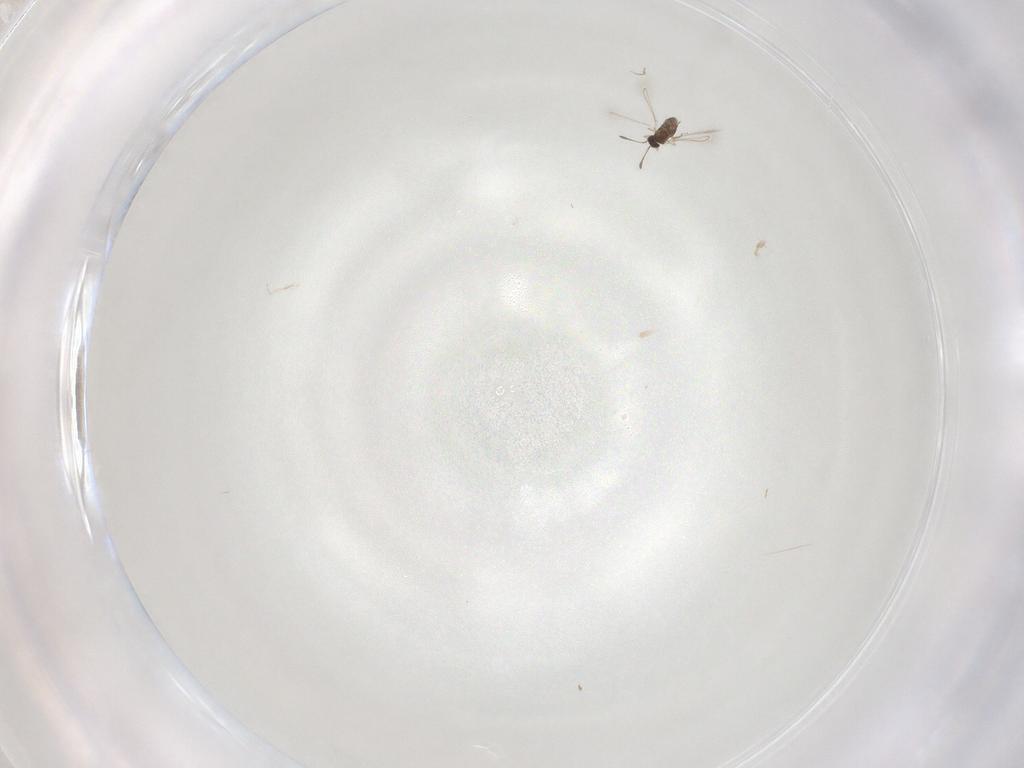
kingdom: Animalia
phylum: Arthropoda
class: Insecta
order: Hymenoptera
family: Mymaridae
